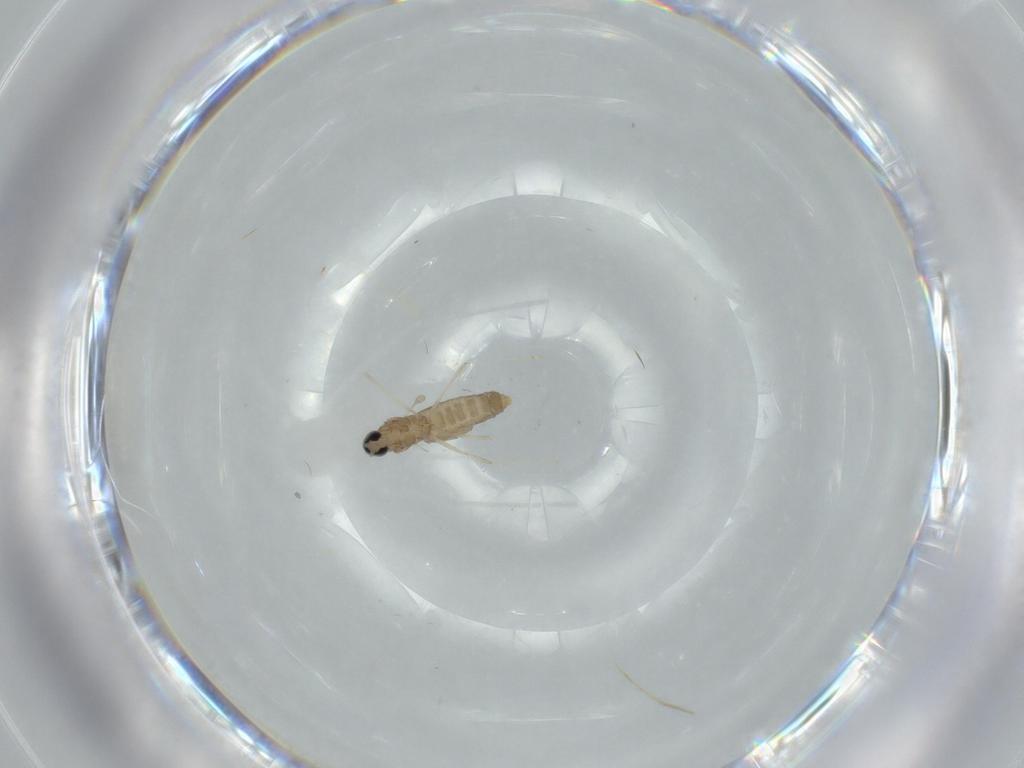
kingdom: Animalia
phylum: Arthropoda
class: Insecta
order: Diptera
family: Cecidomyiidae
